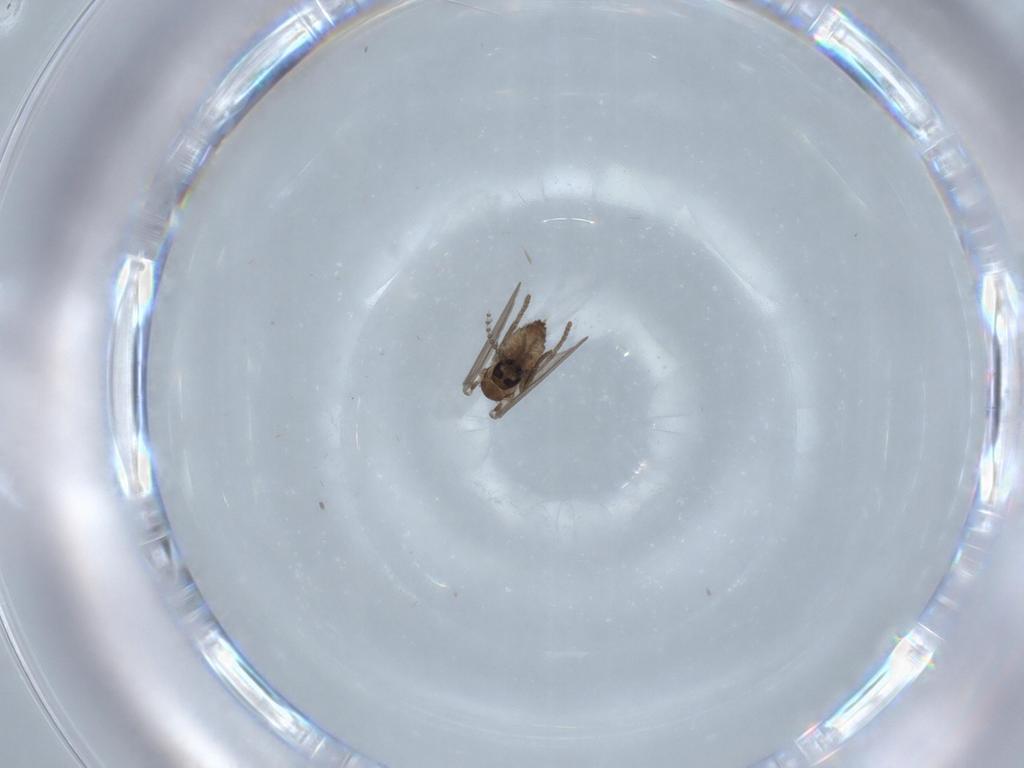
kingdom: Animalia
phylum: Arthropoda
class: Insecta
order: Diptera
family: Psychodidae
